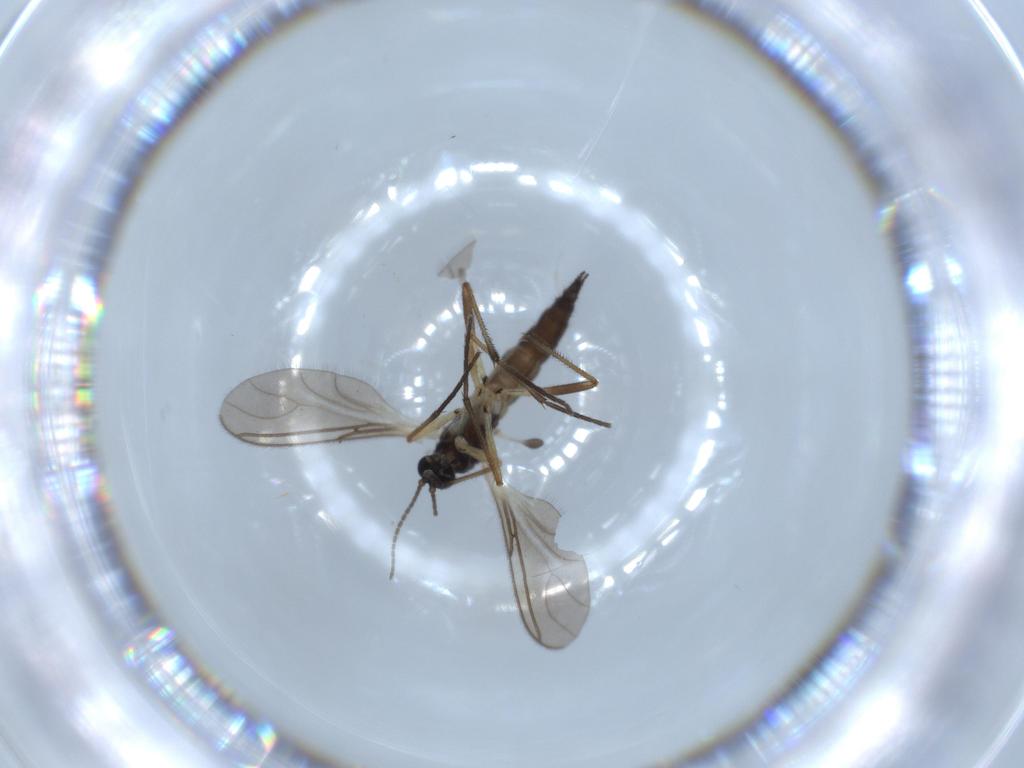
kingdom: Animalia
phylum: Arthropoda
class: Insecta
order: Diptera
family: Sciaridae
